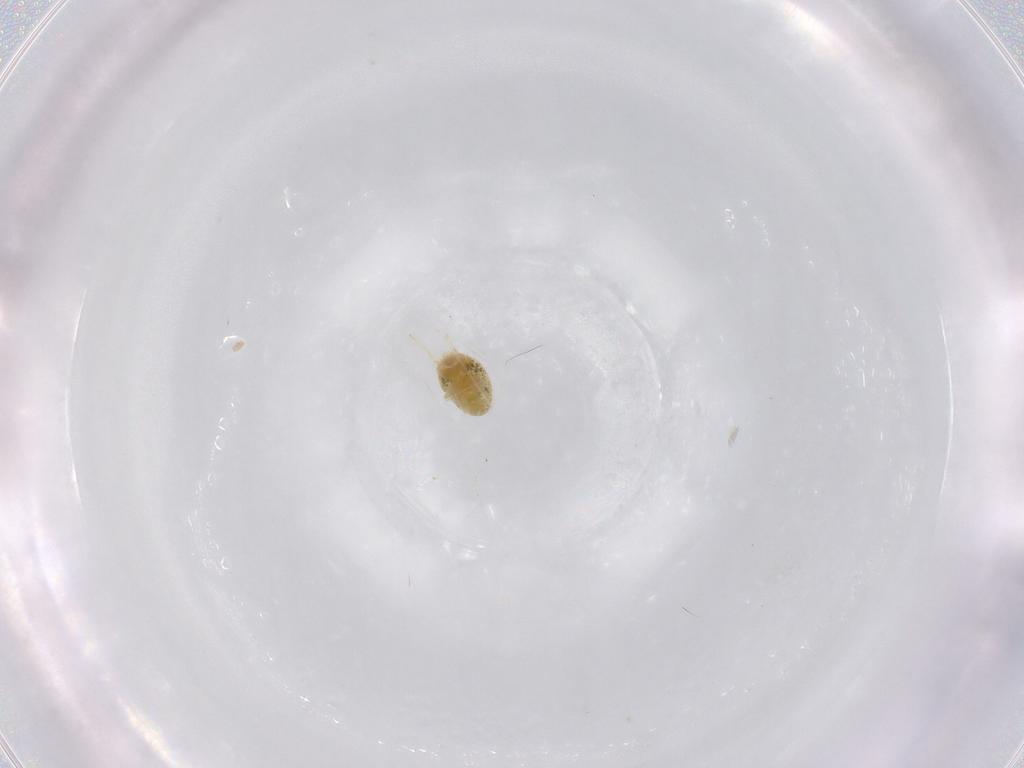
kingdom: Animalia
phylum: Arthropoda
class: Arachnida
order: Trombidiformes
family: Tetranychidae
